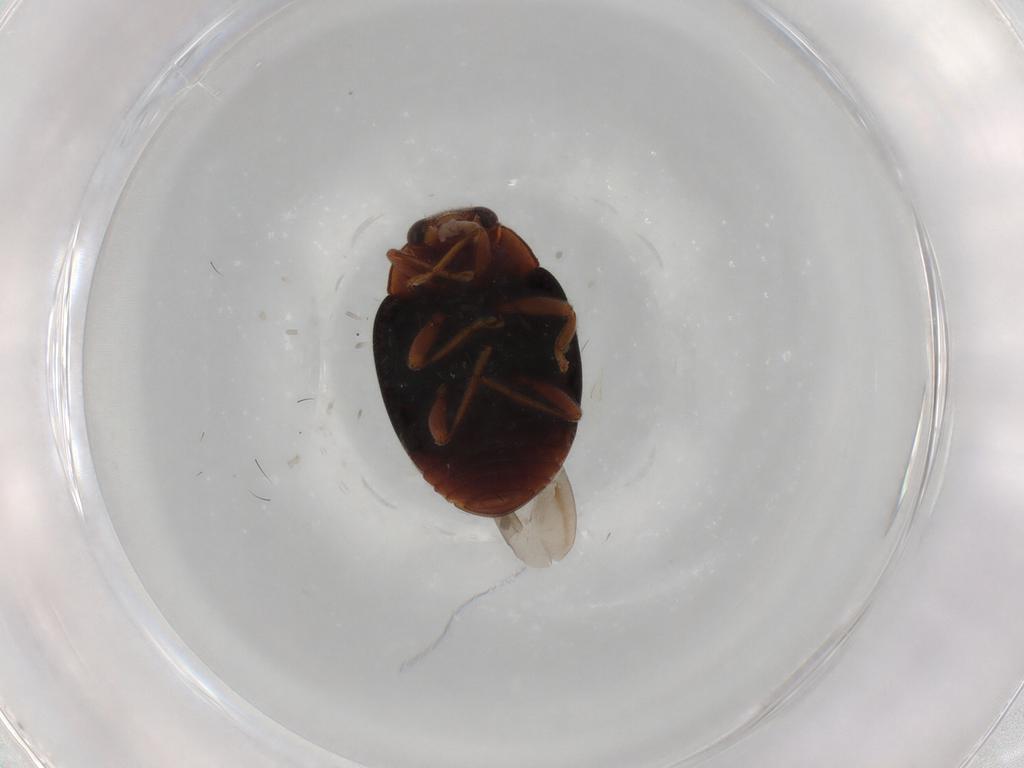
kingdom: Animalia
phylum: Arthropoda
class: Insecta
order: Coleoptera
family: Coccinellidae
